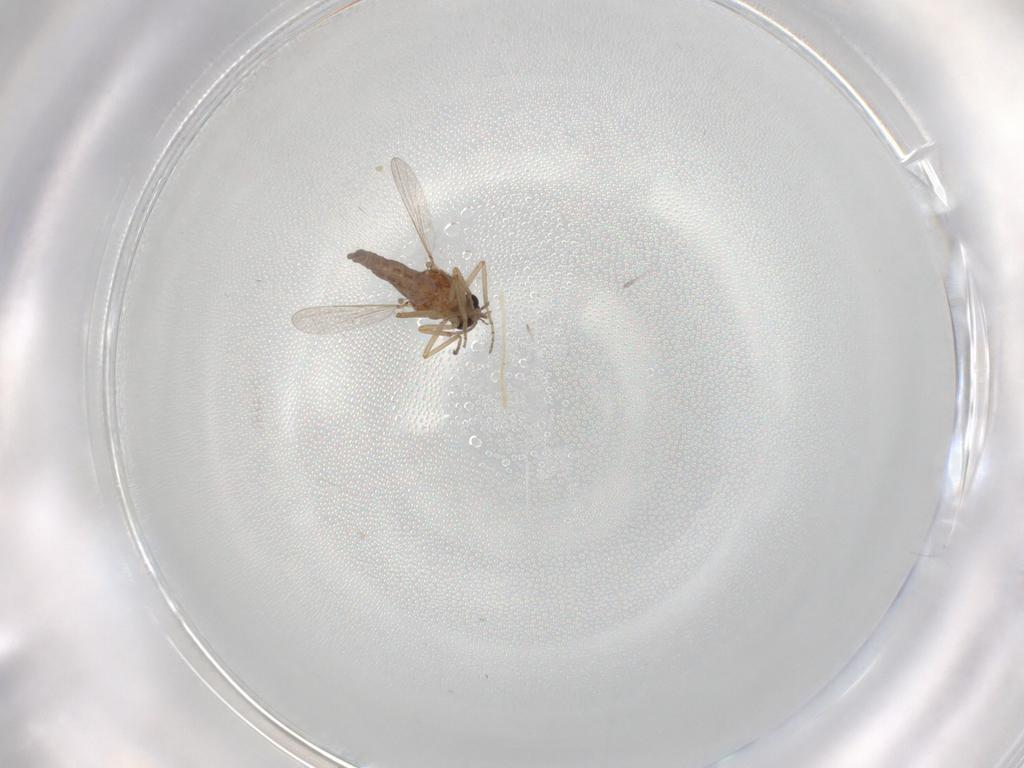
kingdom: Animalia
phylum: Arthropoda
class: Insecta
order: Diptera
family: Ceratopogonidae
